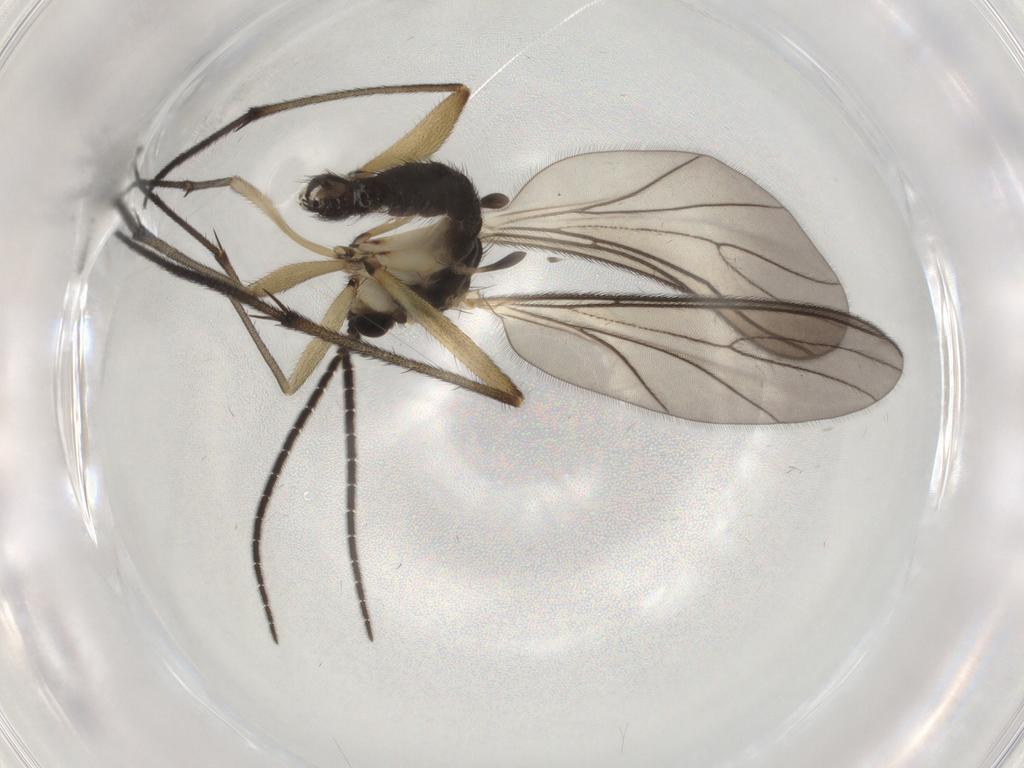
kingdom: Animalia
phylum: Arthropoda
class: Insecta
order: Diptera
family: Sciaridae
